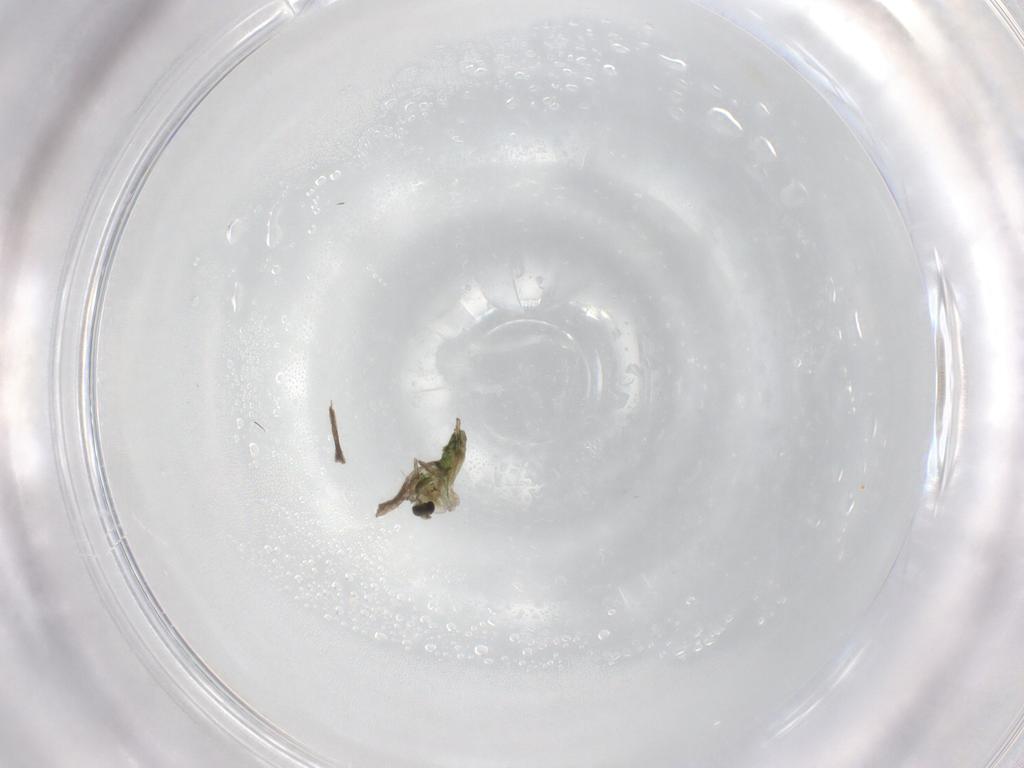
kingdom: Animalia
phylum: Arthropoda
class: Insecta
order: Diptera
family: Chironomidae
